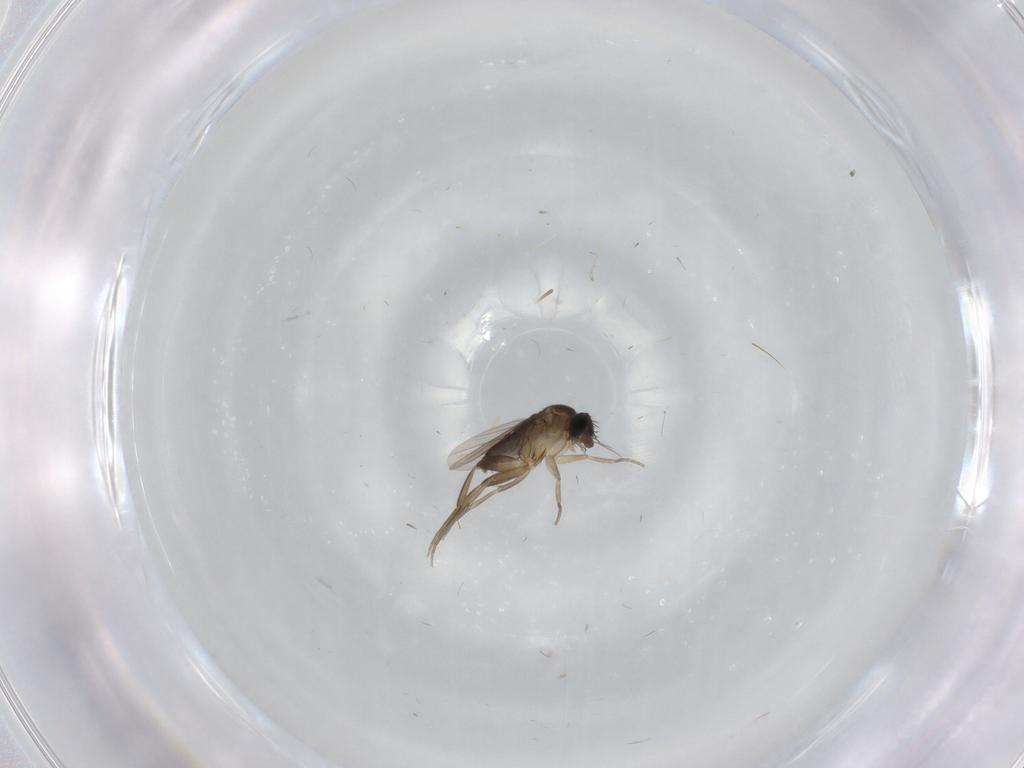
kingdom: Animalia
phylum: Arthropoda
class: Insecta
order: Diptera
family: Phoridae
